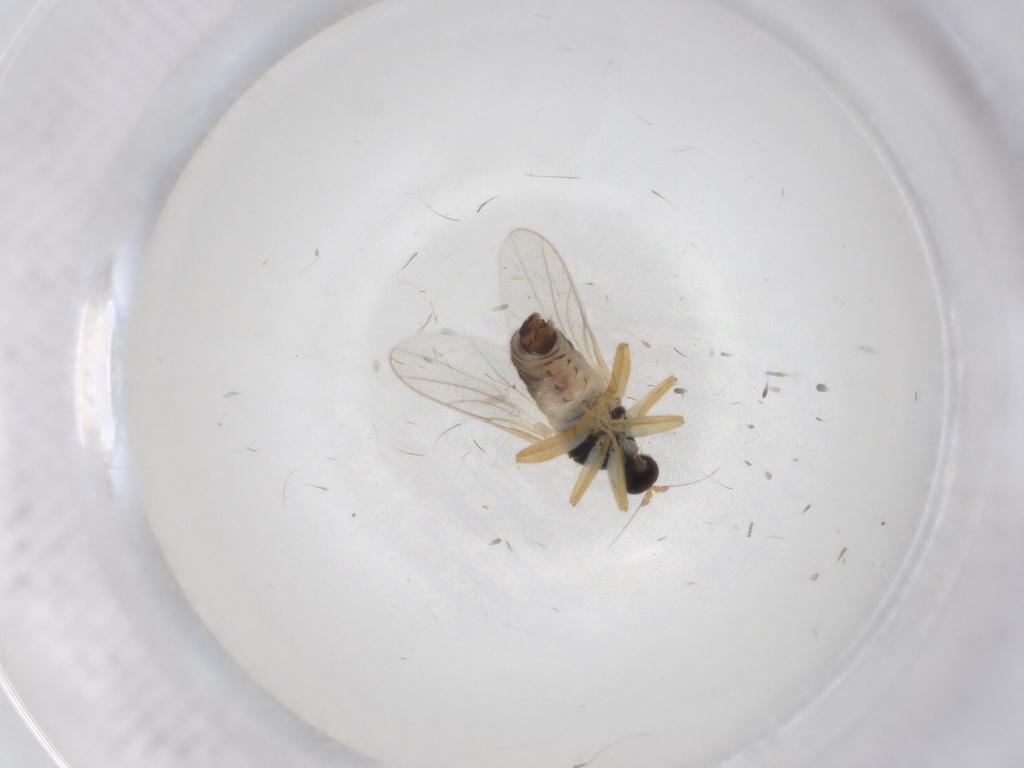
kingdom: Animalia
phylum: Arthropoda
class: Insecta
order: Diptera
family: Hybotidae
